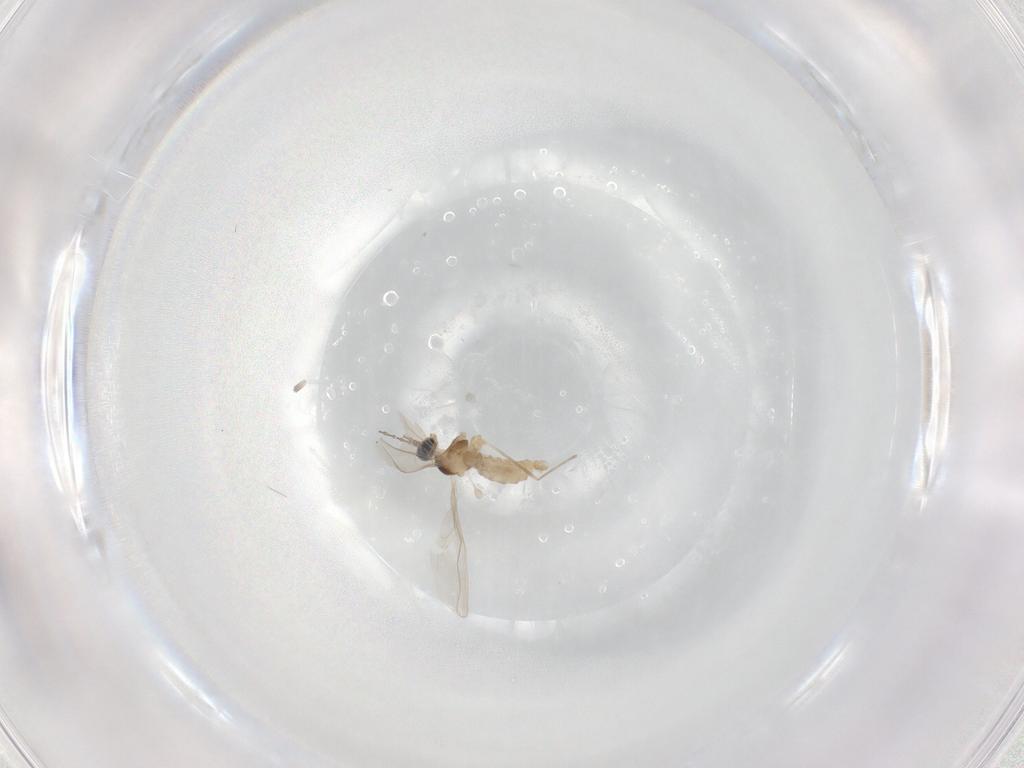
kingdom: Animalia
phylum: Arthropoda
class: Insecta
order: Diptera
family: Cecidomyiidae
